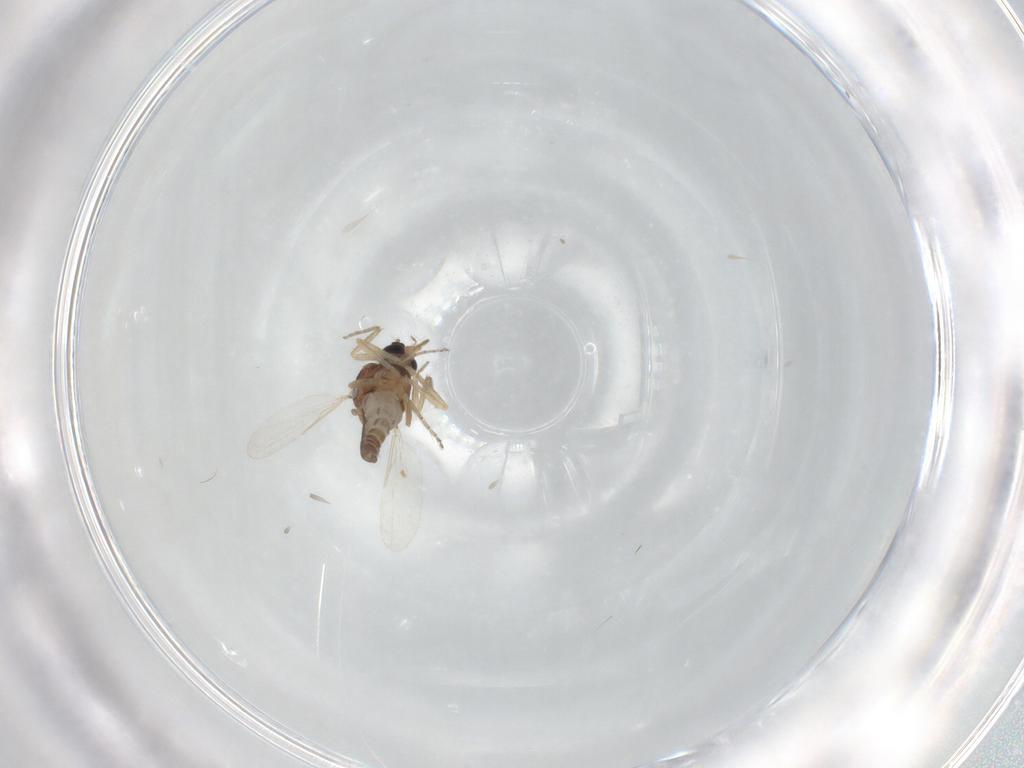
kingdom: Animalia
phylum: Arthropoda
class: Insecta
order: Diptera
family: Ceratopogonidae
